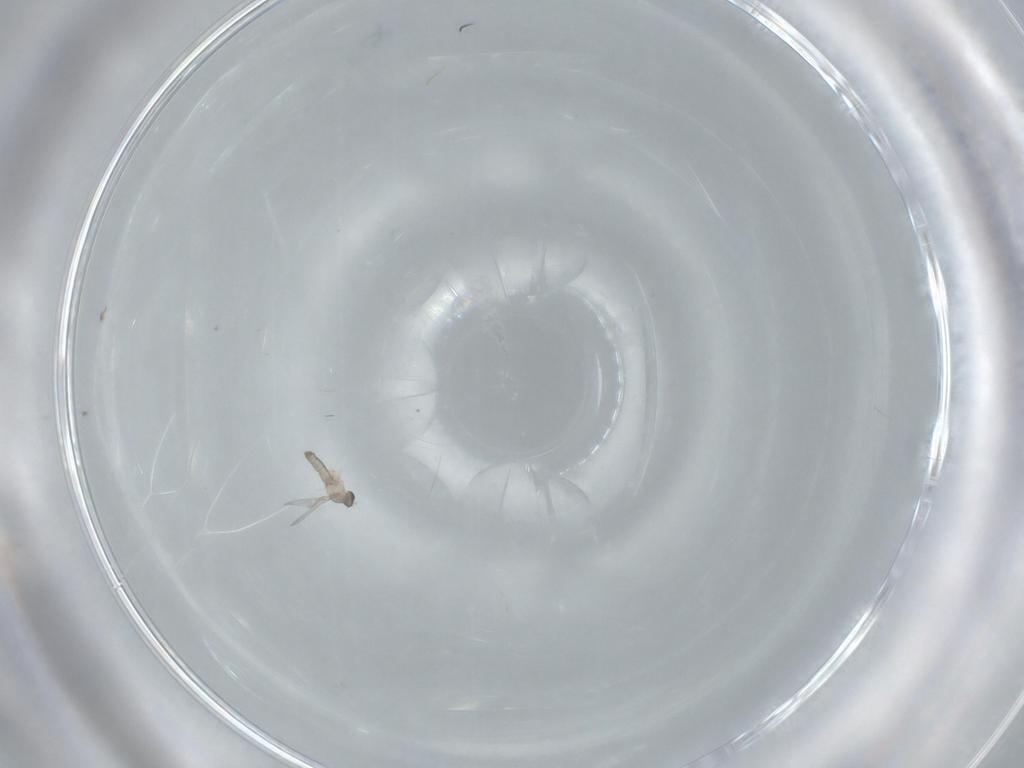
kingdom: Animalia
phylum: Arthropoda
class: Insecta
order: Diptera
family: Cecidomyiidae
